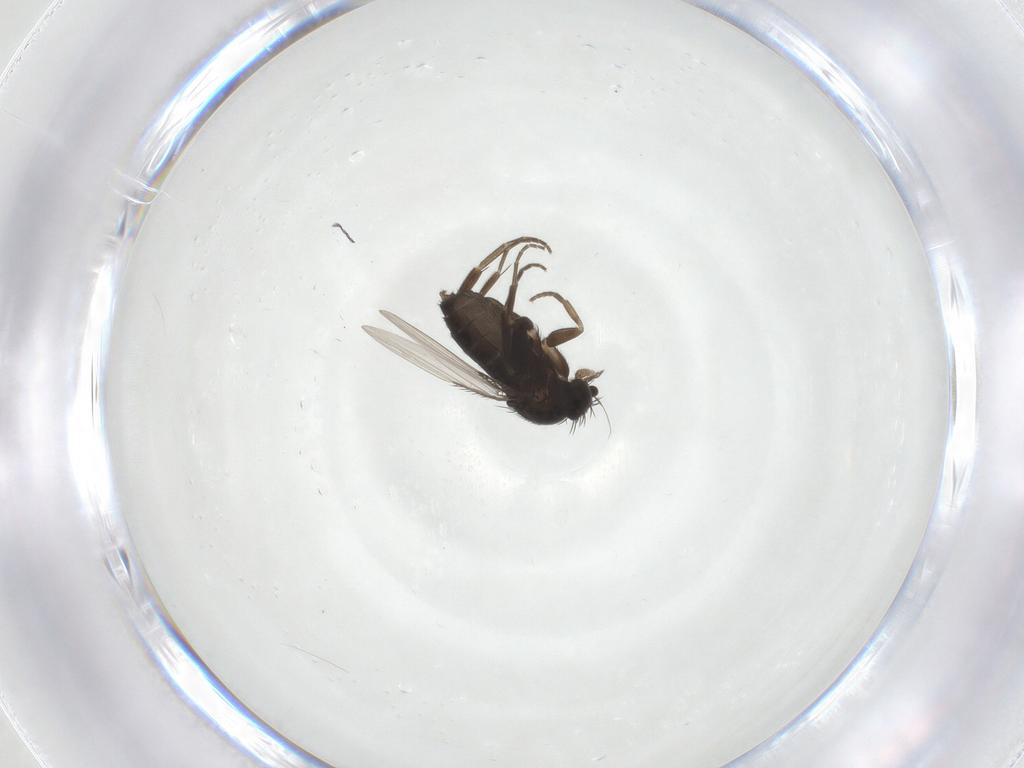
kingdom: Animalia
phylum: Arthropoda
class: Insecta
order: Diptera
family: Phoridae
